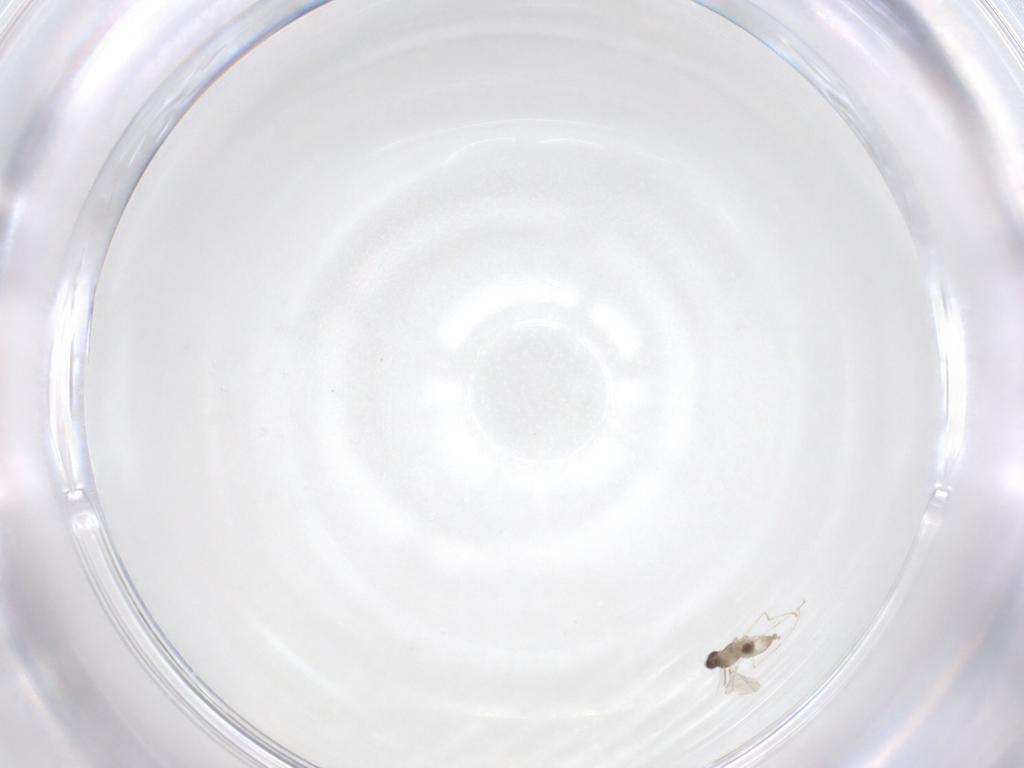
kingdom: Animalia
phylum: Arthropoda
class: Insecta
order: Diptera
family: Cecidomyiidae
